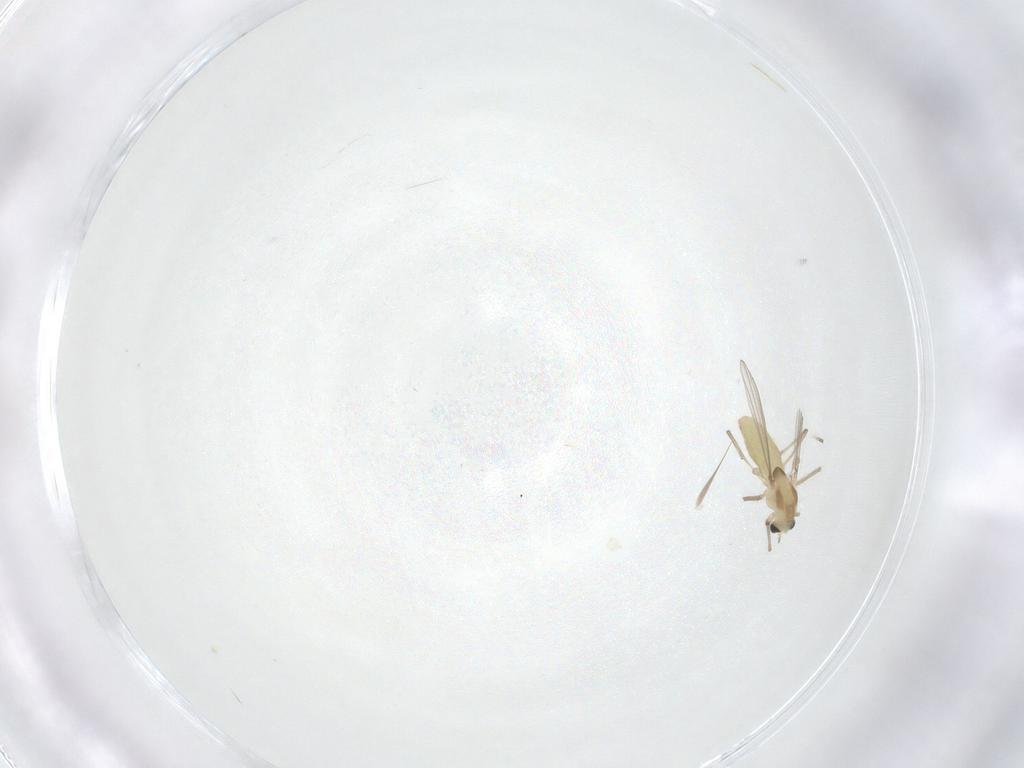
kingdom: Animalia
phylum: Arthropoda
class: Insecta
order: Diptera
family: Chironomidae
